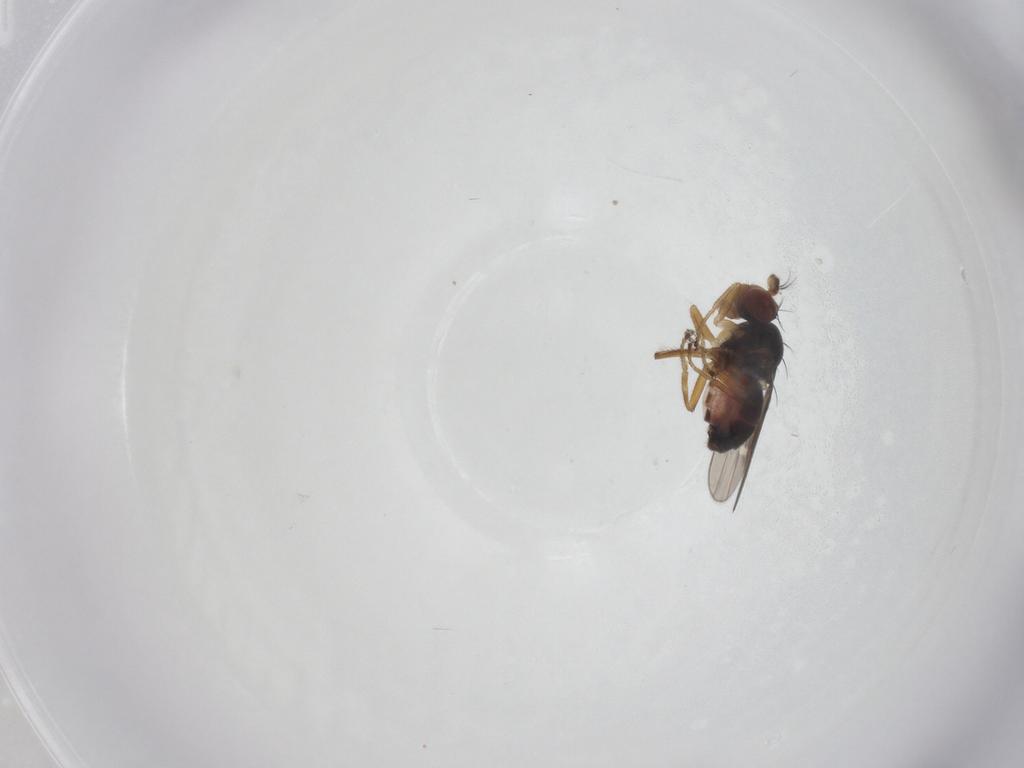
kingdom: Animalia
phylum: Arthropoda
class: Insecta
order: Diptera
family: Ephydridae
